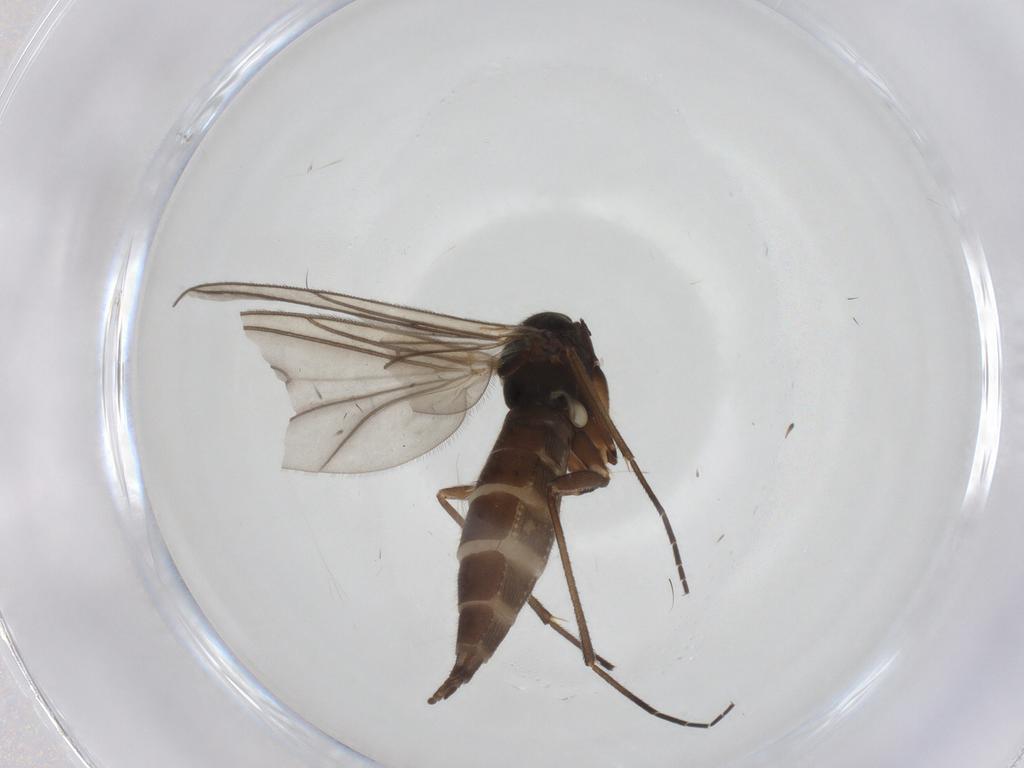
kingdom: Animalia
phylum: Arthropoda
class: Insecta
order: Diptera
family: Sciaridae
